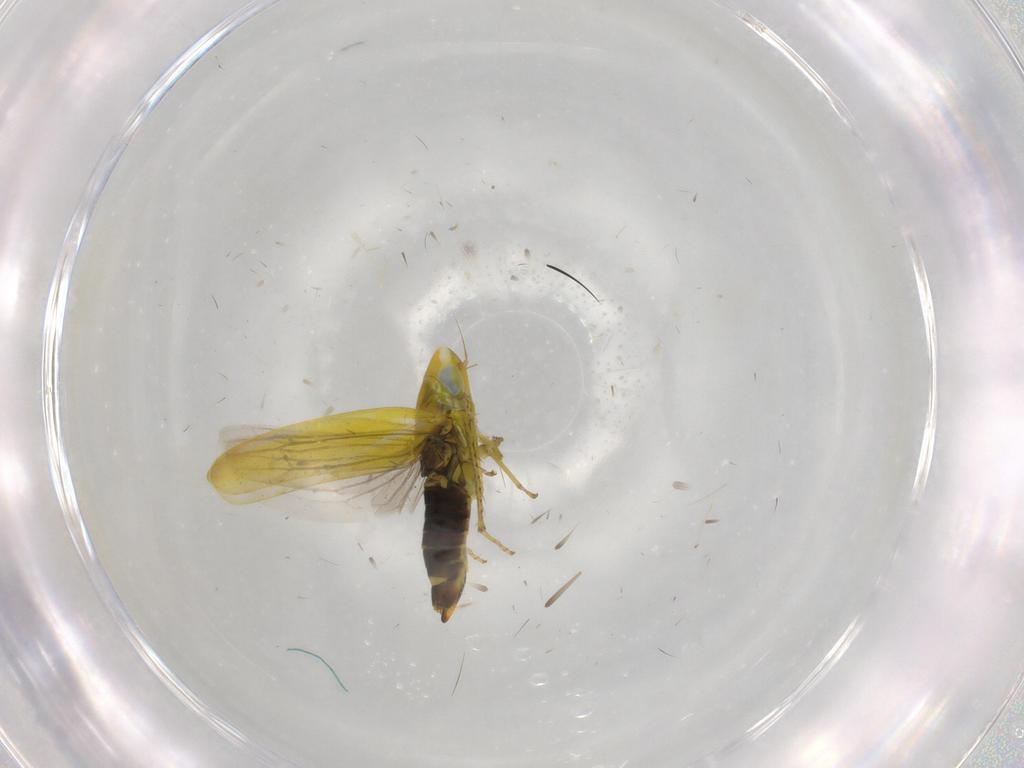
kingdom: Animalia
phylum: Arthropoda
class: Insecta
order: Hemiptera
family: Cicadellidae
